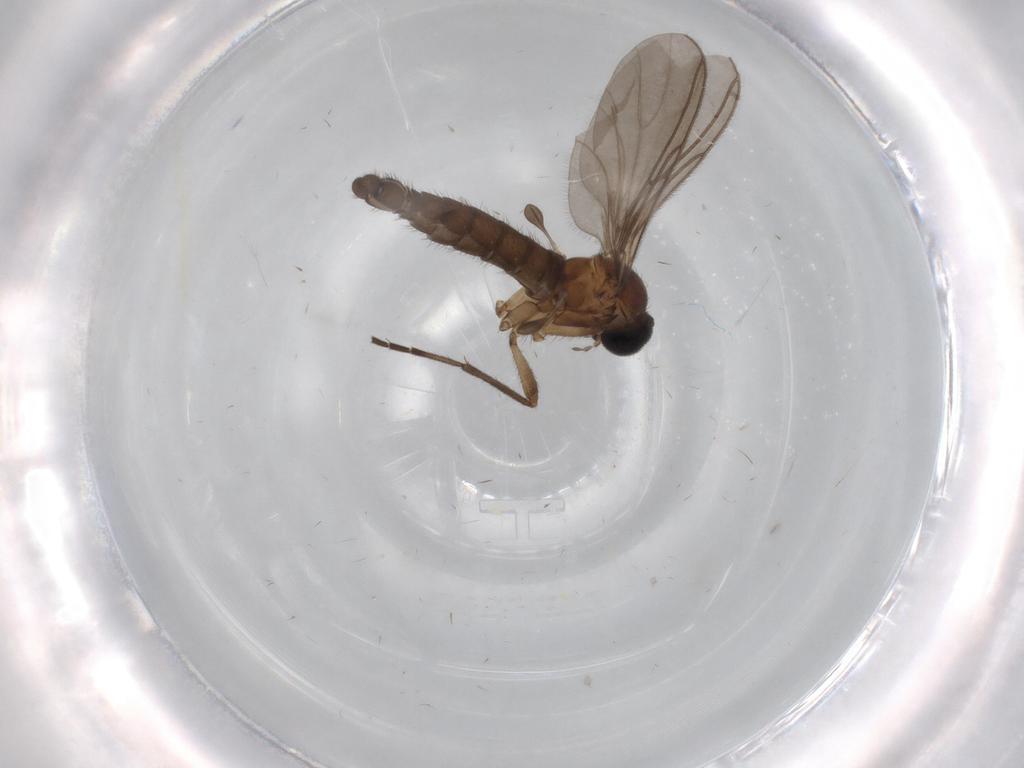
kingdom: Animalia
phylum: Arthropoda
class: Insecta
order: Diptera
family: Sciaridae
